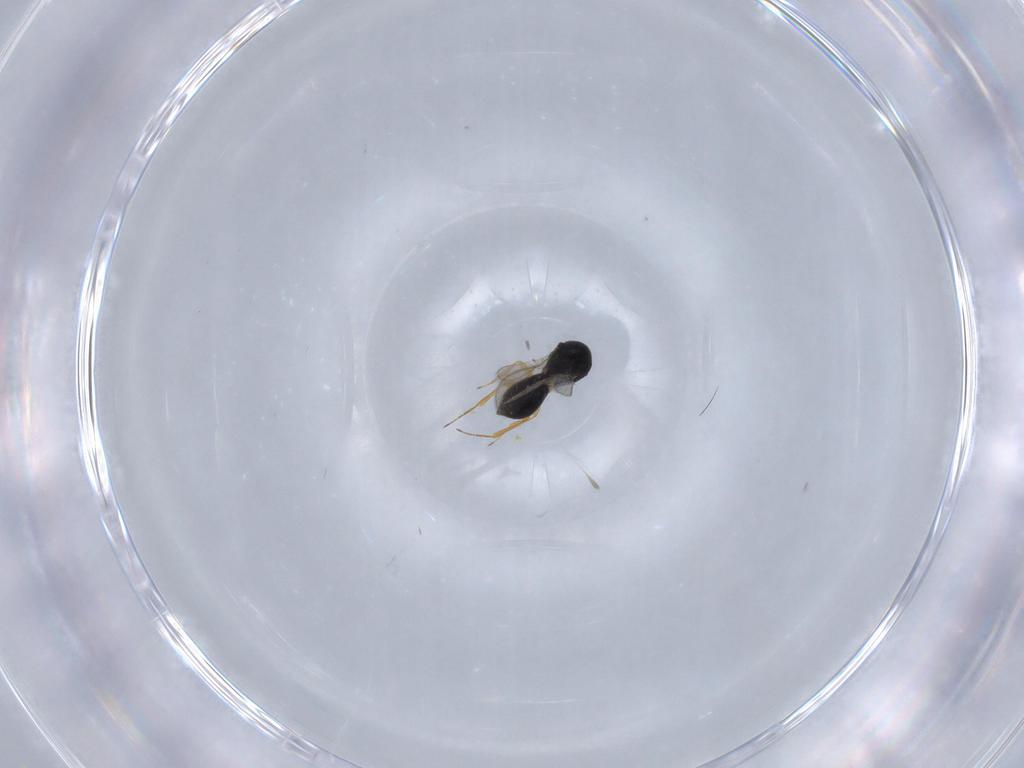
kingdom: Animalia
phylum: Arthropoda
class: Insecta
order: Hymenoptera
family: Scelionidae
